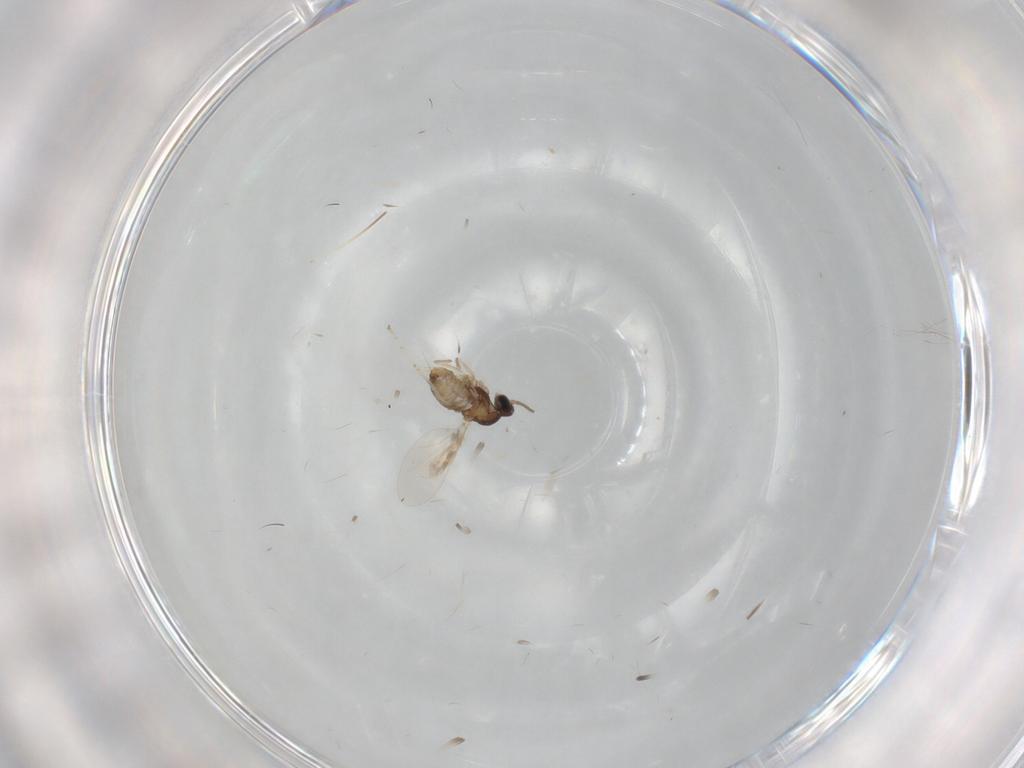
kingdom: Animalia
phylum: Arthropoda
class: Insecta
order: Diptera
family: Cecidomyiidae
